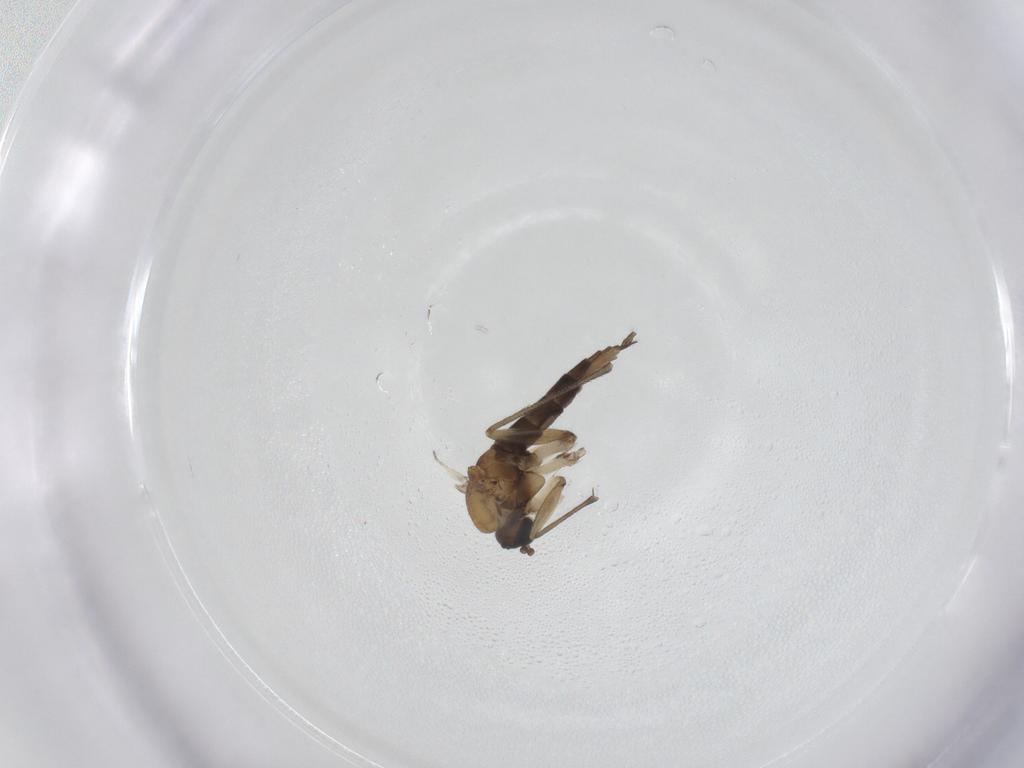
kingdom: Animalia
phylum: Arthropoda
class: Insecta
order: Diptera
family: Sciaridae
